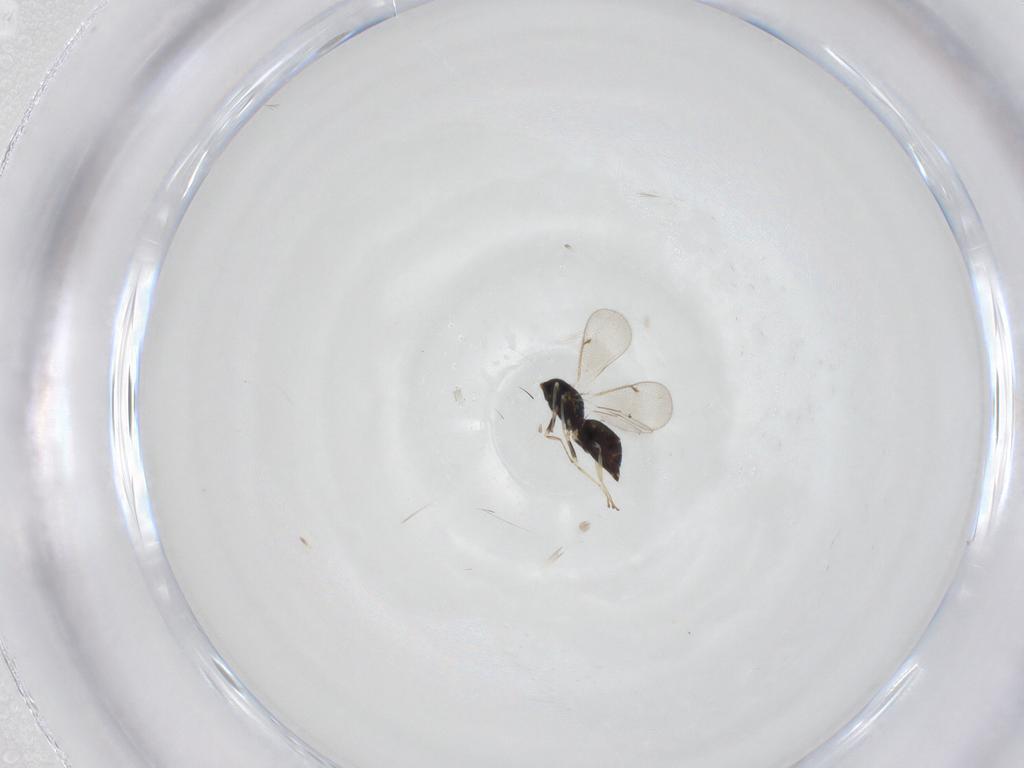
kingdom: Animalia
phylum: Arthropoda
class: Insecta
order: Hymenoptera
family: Eulophidae
